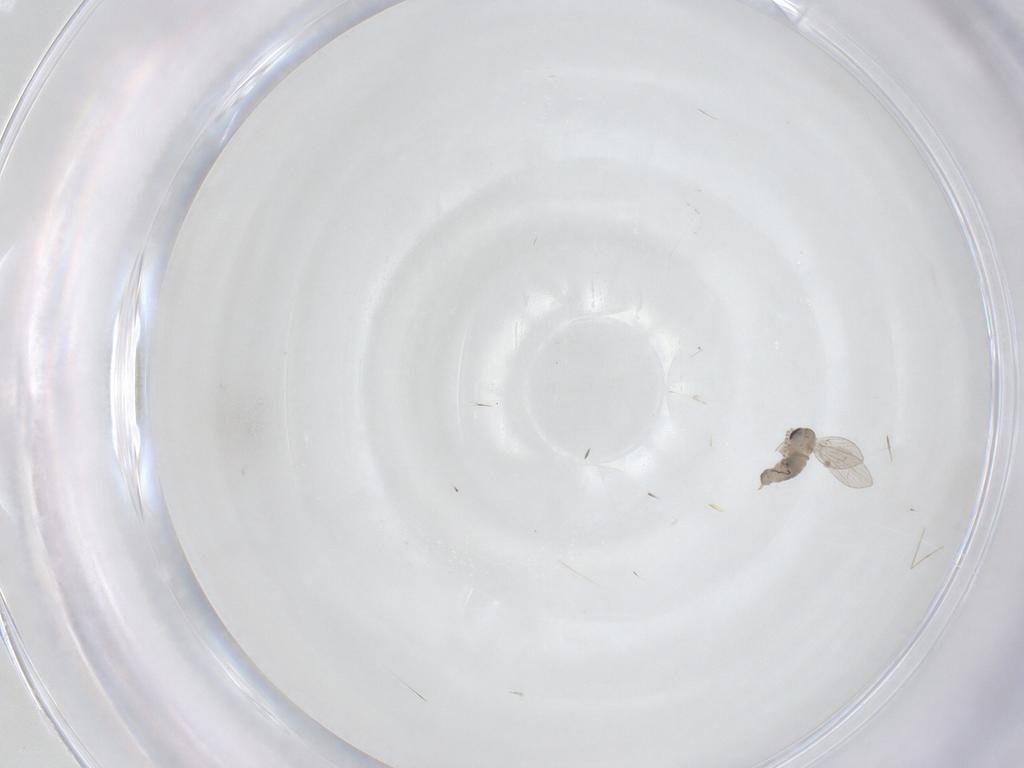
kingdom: Animalia
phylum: Arthropoda
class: Insecta
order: Diptera
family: Psychodidae
